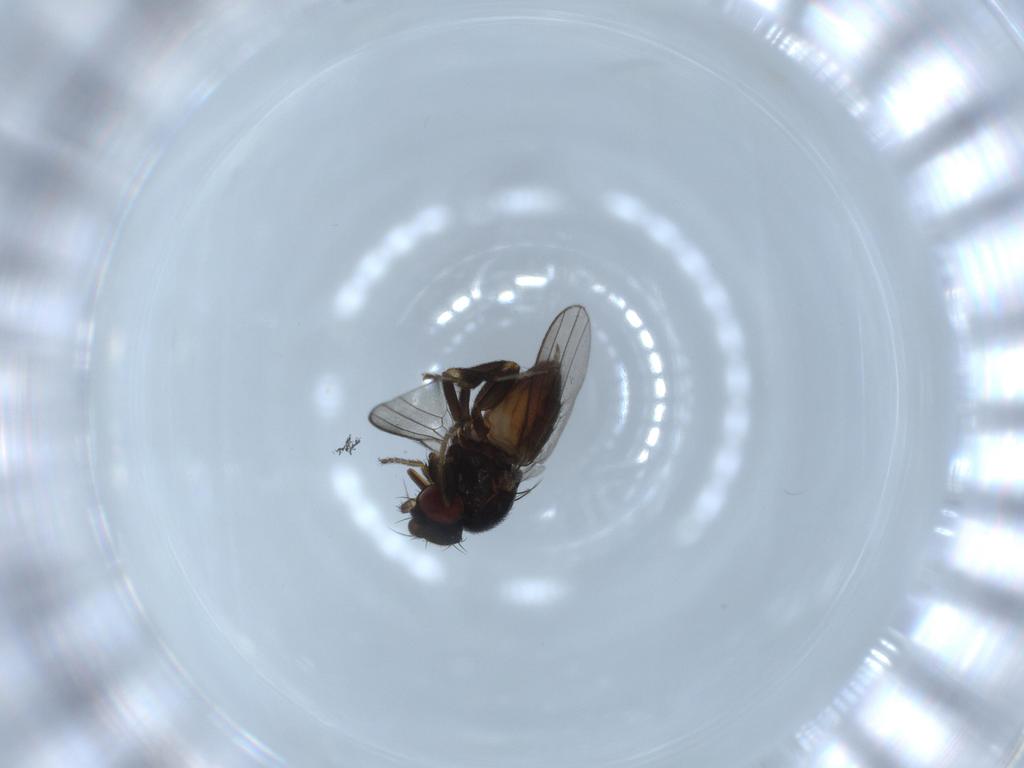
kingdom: Animalia
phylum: Arthropoda
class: Insecta
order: Diptera
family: Milichiidae
